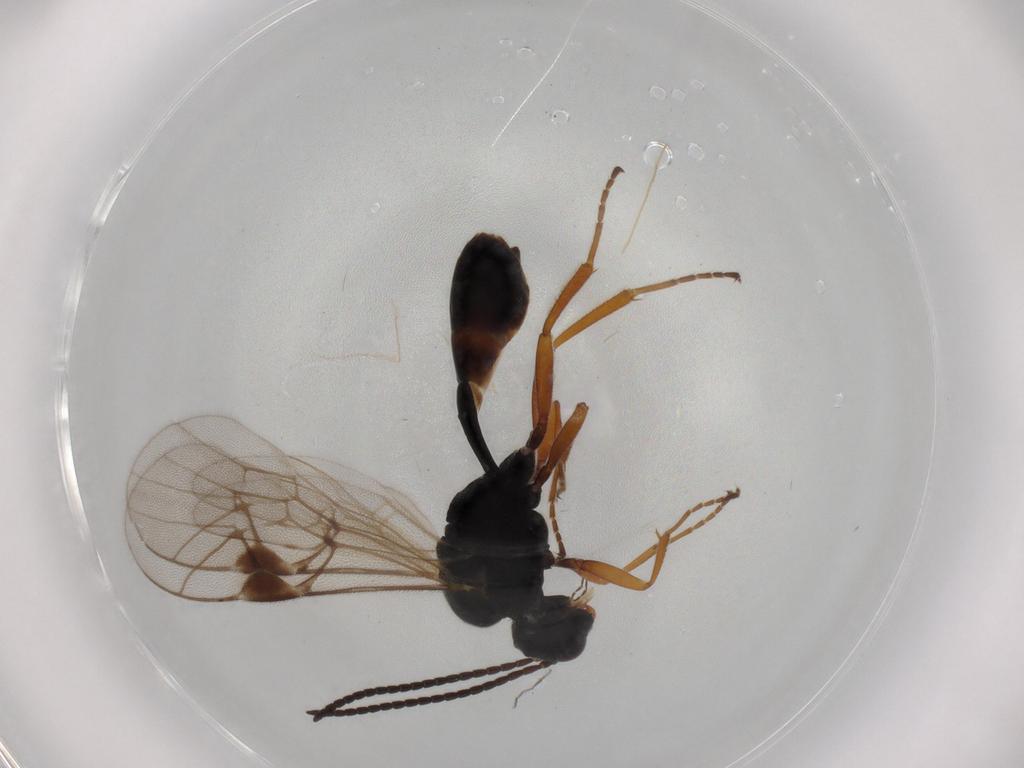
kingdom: Animalia
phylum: Arthropoda
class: Insecta
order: Hymenoptera
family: Ichneumonidae
